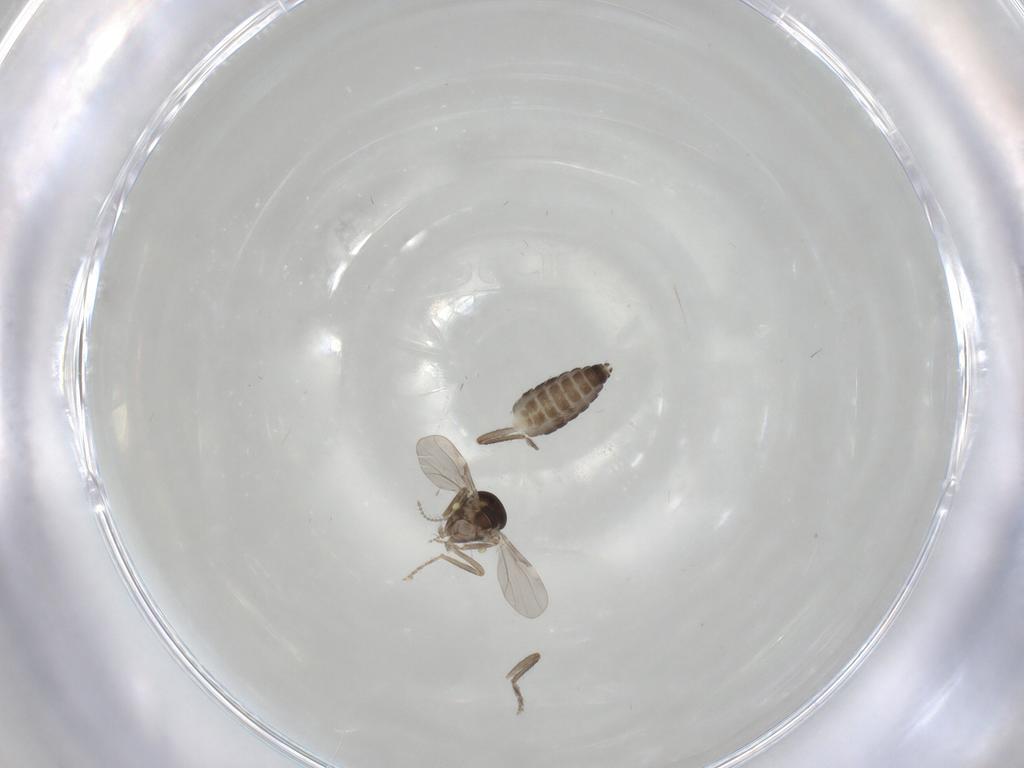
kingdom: Animalia
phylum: Arthropoda
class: Insecta
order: Diptera
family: Ceratopogonidae
